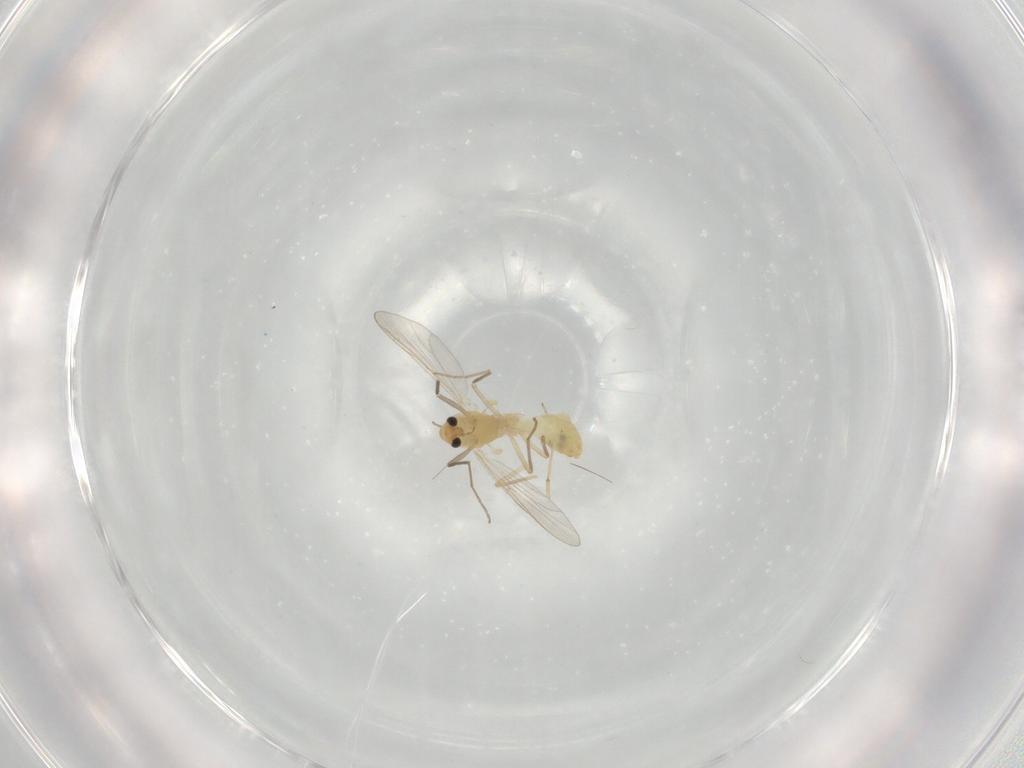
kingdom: Animalia
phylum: Arthropoda
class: Insecta
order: Diptera
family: Chironomidae
